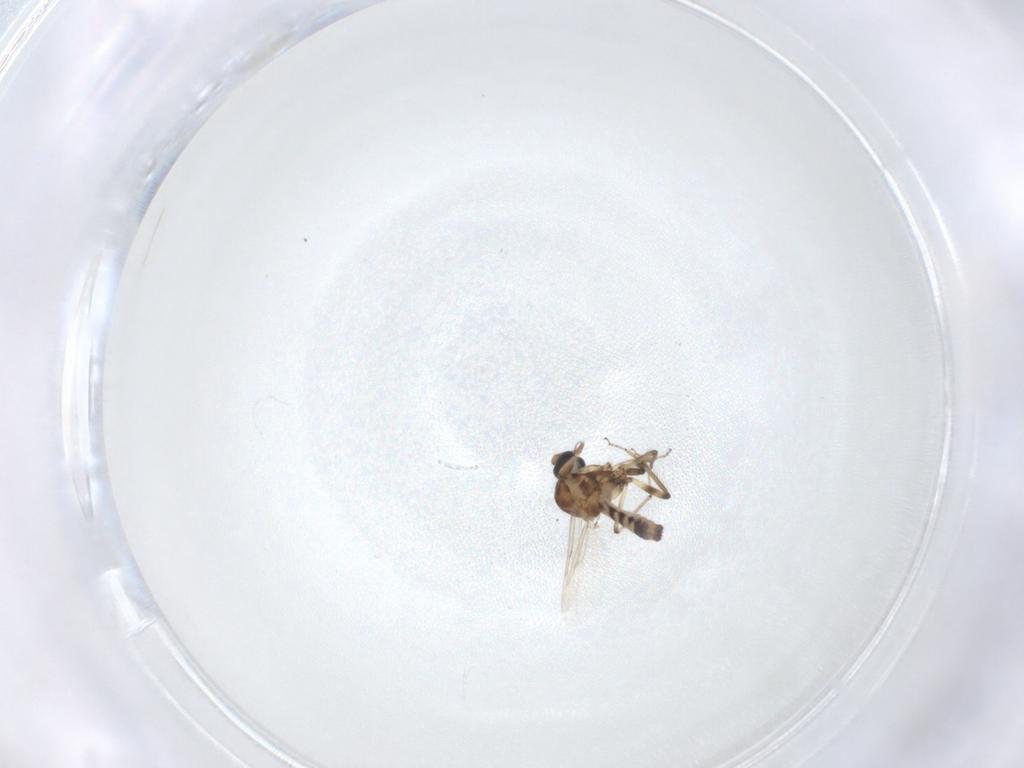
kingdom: Animalia
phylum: Arthropoda
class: Insecta
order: Diptera
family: Ceratopogonidae
